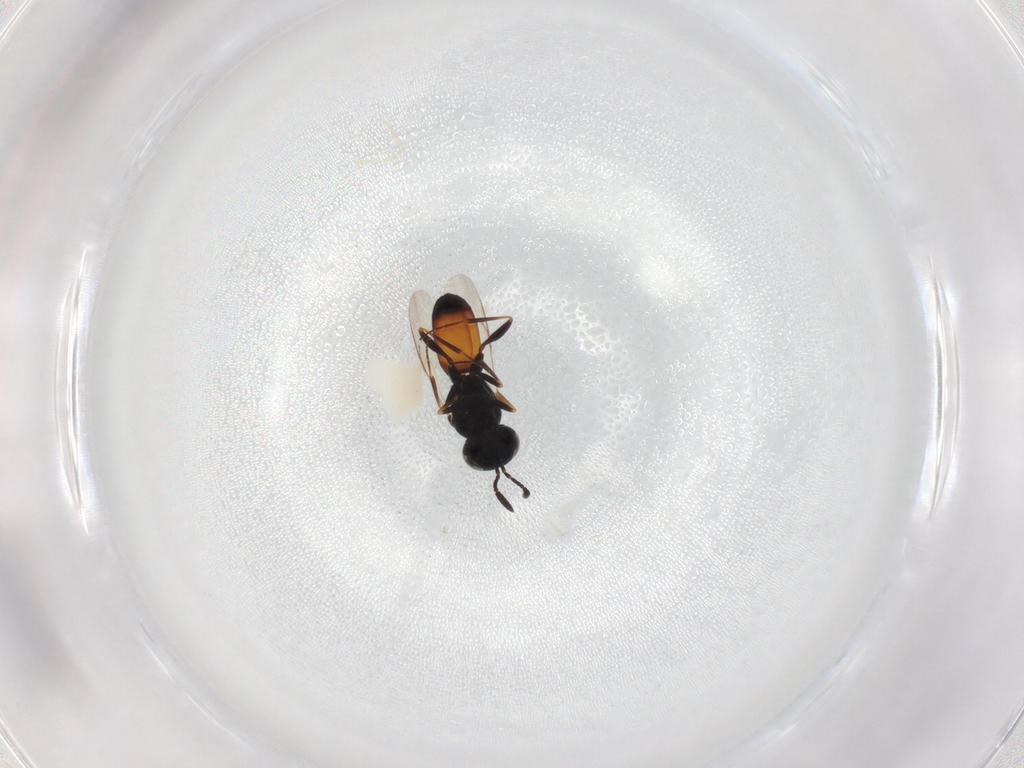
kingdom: Animalia
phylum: Arthropoda
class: Insecta
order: Hymenoptera
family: Scelionidae
